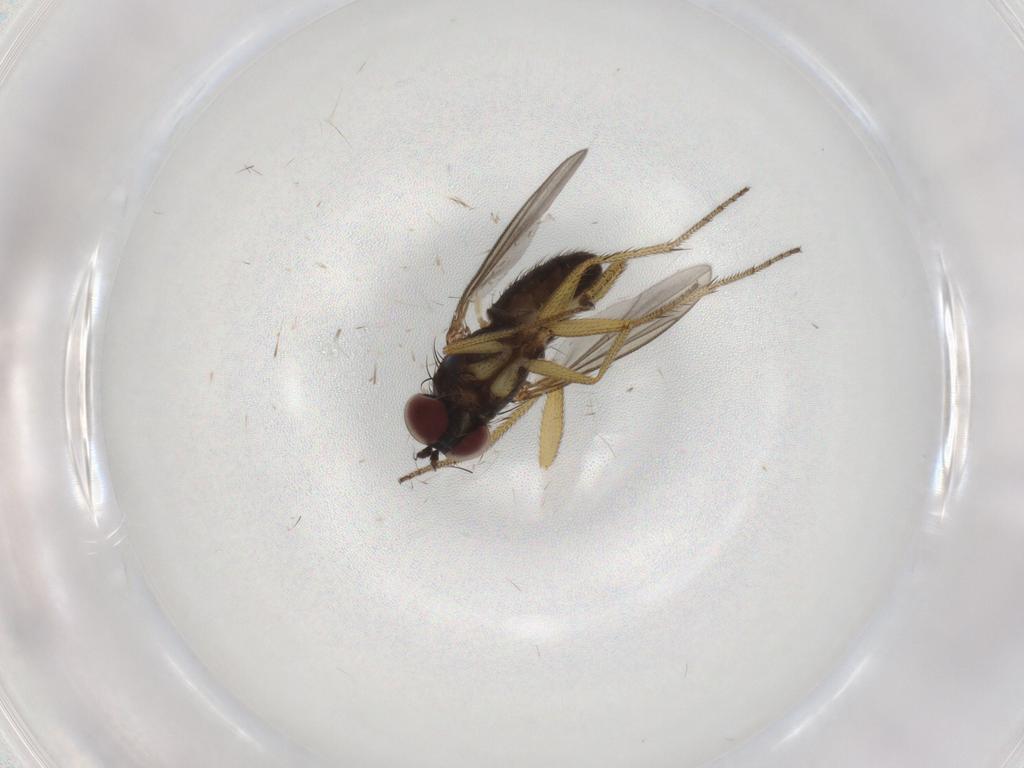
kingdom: Animalia
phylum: Arthropoda
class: Insecta
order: Diptera
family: Dolichopodidae
